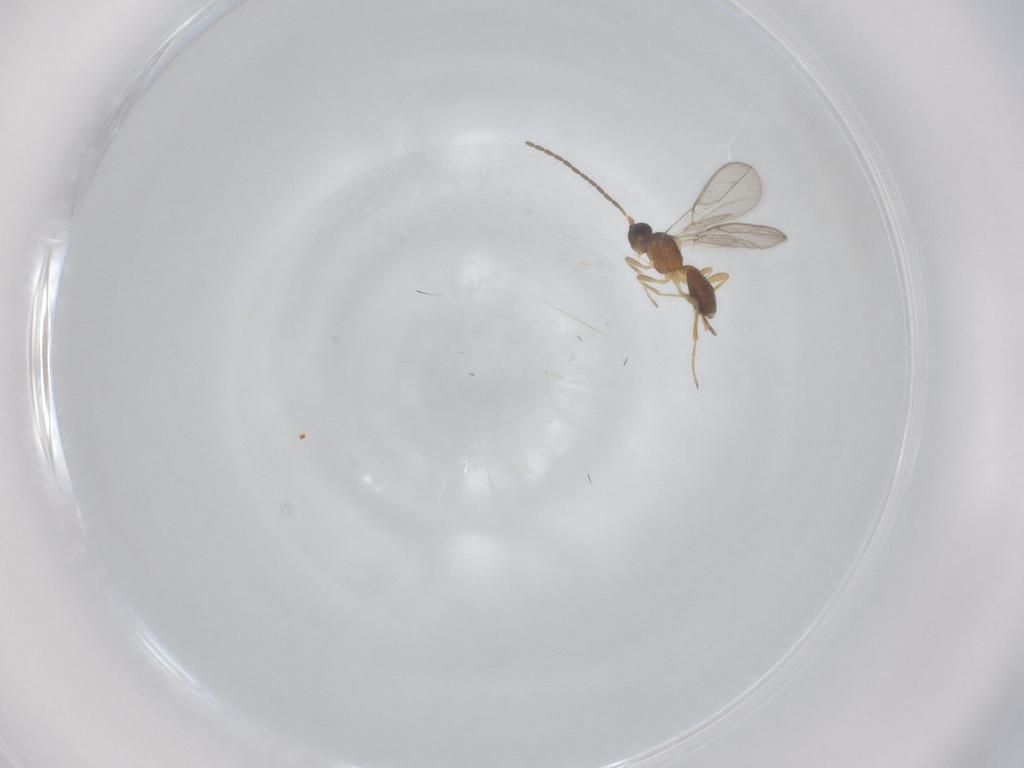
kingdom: Animalia
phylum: Arthropoda
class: Insecta
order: Hymenoptera
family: Braconidae
